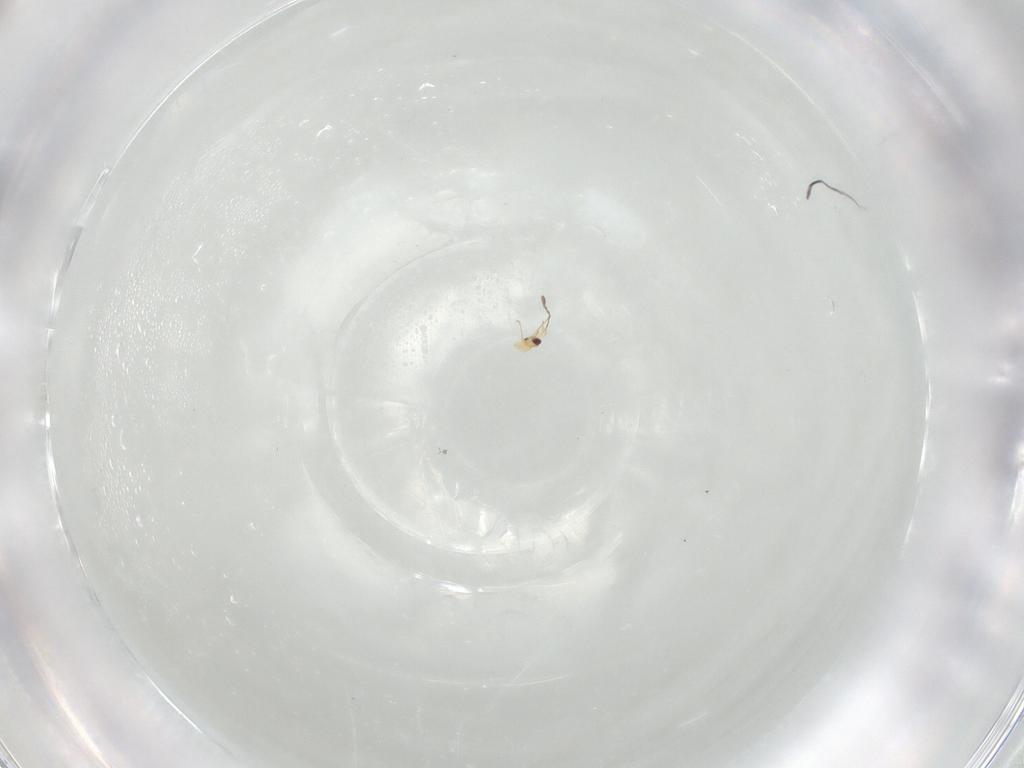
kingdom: Animalia
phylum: Arthropoda
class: Insecta
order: Hymenoptera
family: Mymaridae
